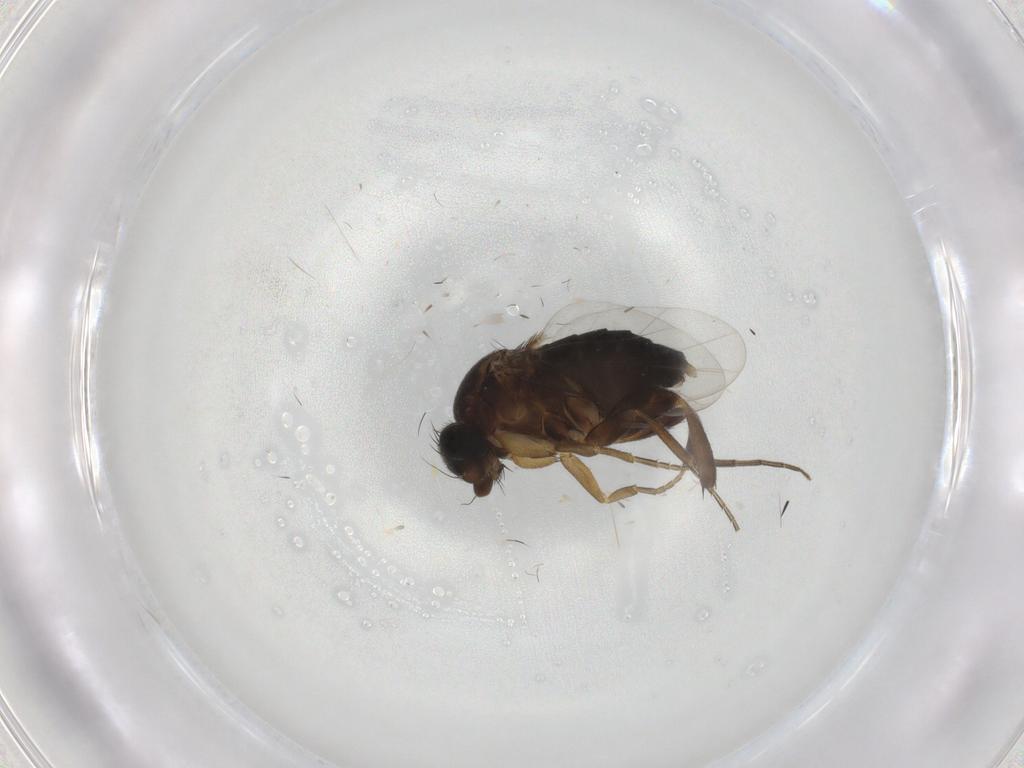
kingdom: Animalia
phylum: Arthropoda
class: Insecta
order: Diptera
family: Phoridae
